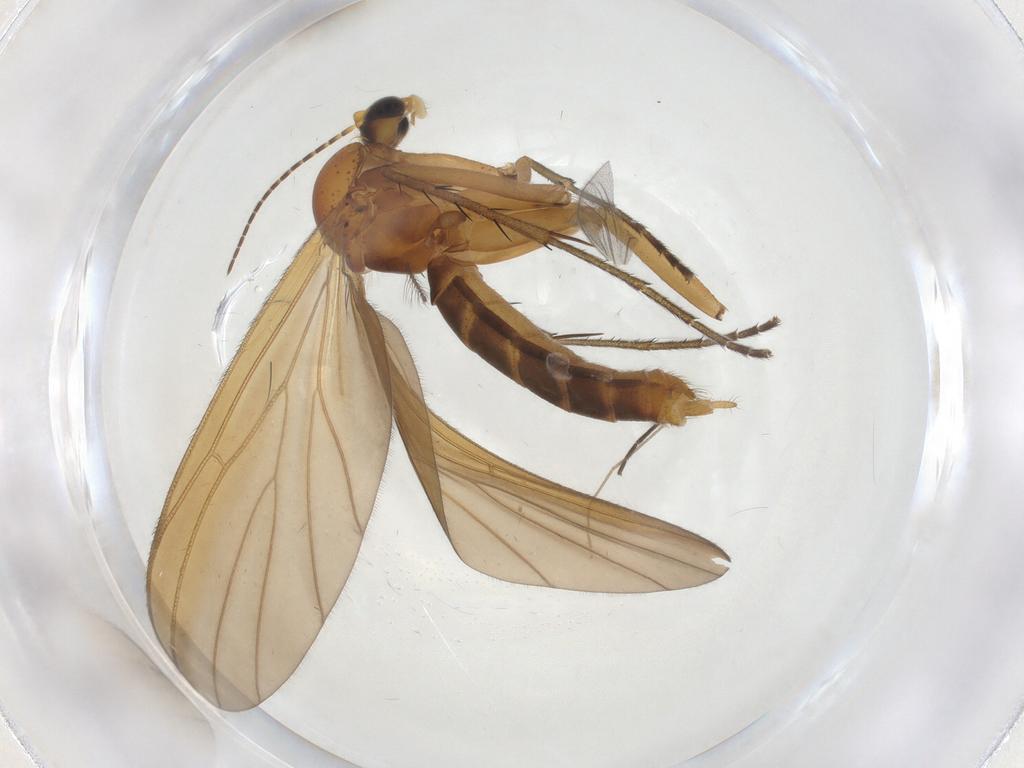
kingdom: Animalia
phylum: Arthropoda
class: Insecta
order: Diptera
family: Mycetophilidae
